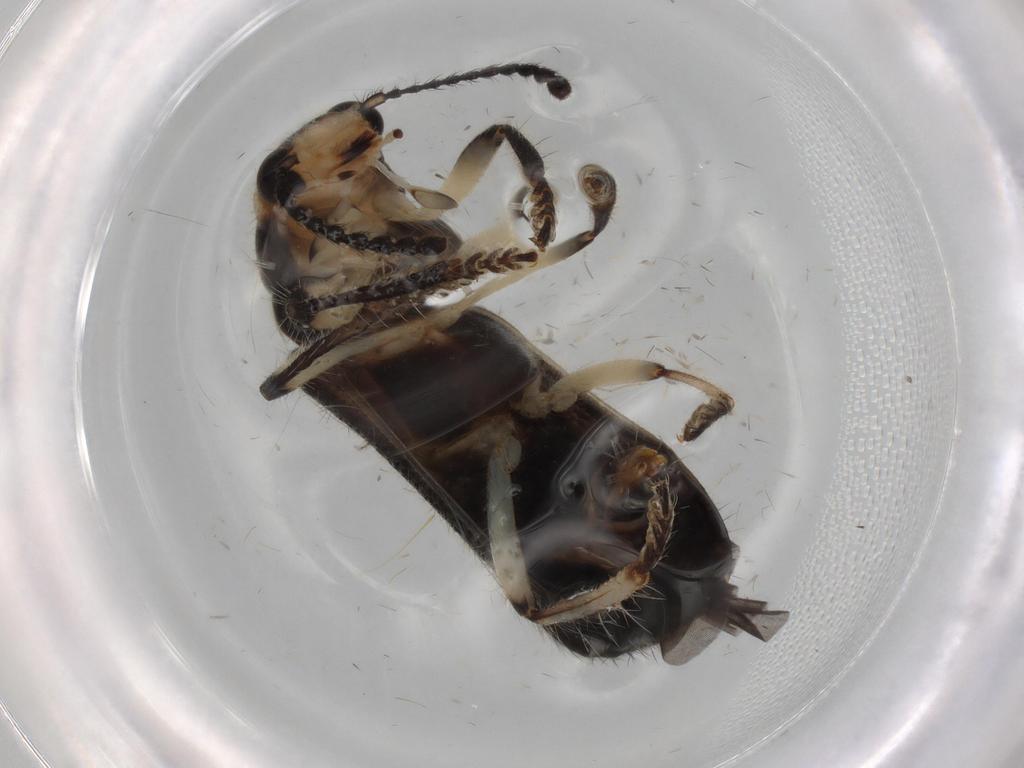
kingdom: Animalia
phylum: Arthropoda
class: Insecta
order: Coleoptera
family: Chrysomelidae
